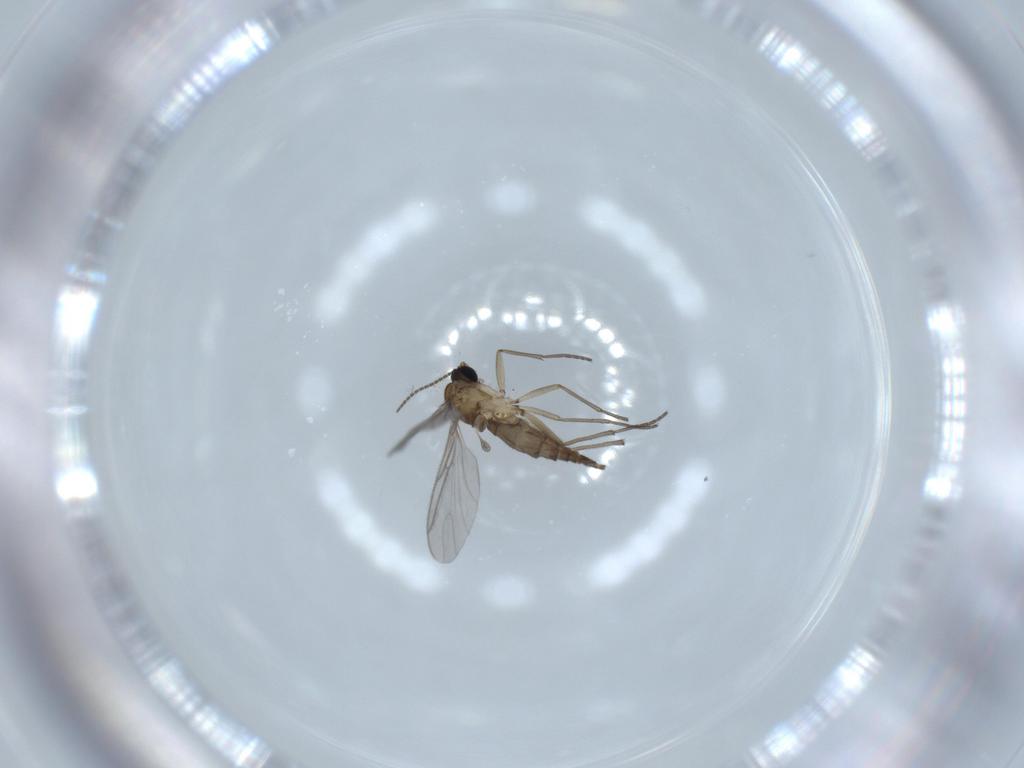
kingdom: Animalia
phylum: Arthropoda
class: Insecta
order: Diptera
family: Sciaridae
